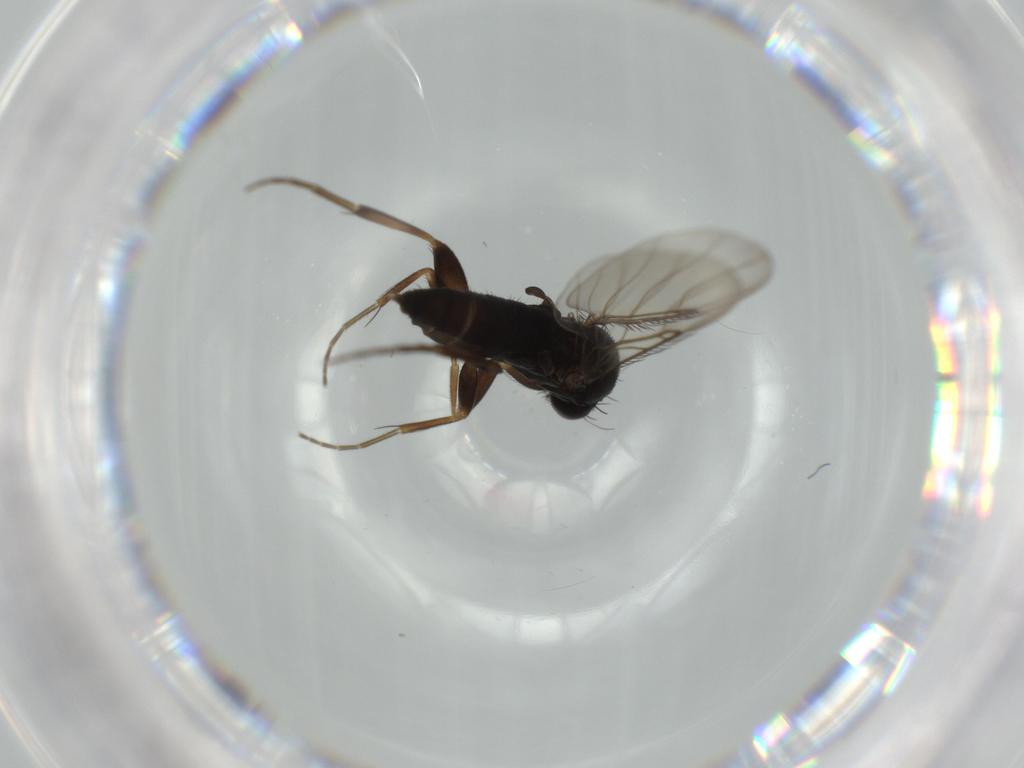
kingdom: Animalia
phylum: Arthropoda
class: Insecta
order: Diptera
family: Phoridae
